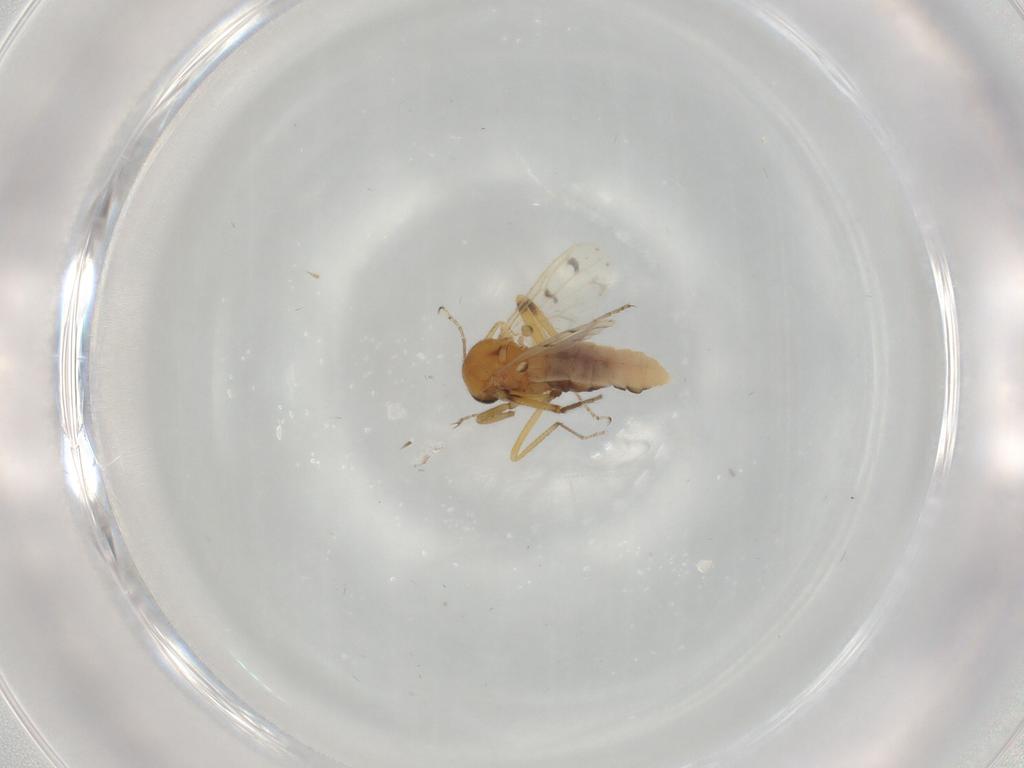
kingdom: Animalia
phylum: Arthropoda
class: Insecta
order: Diptera
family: Ceratopogonidae
